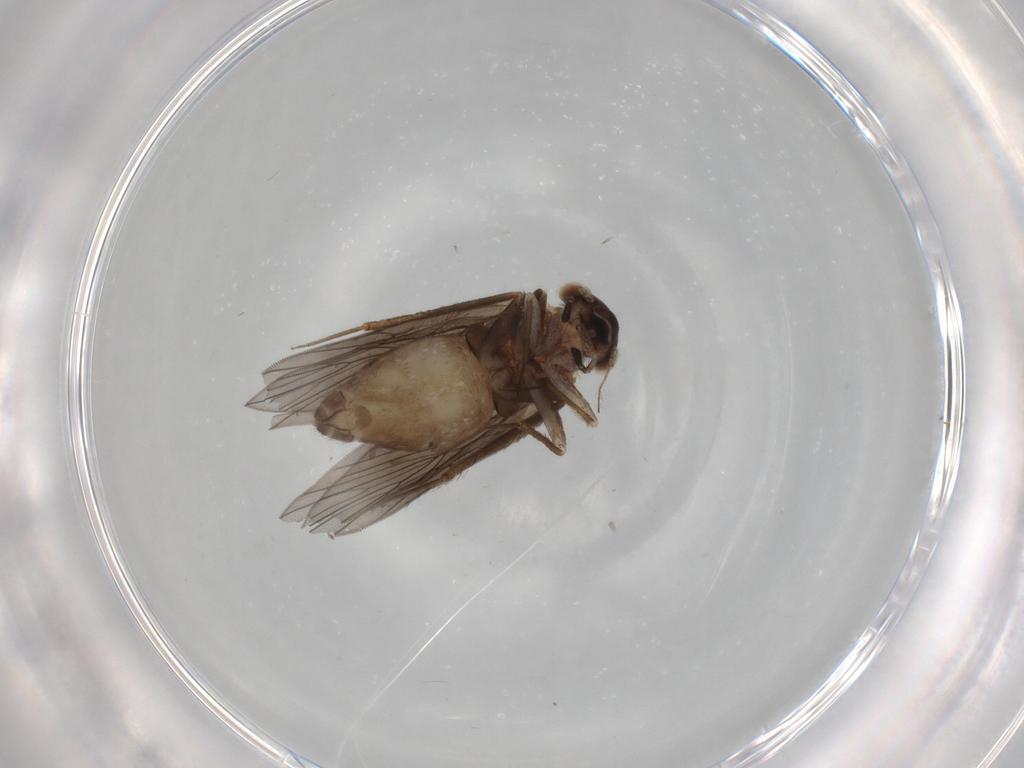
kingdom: Animalia
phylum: Arthropoda
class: Insecta
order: Psocodea
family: Lepidopsocidae
